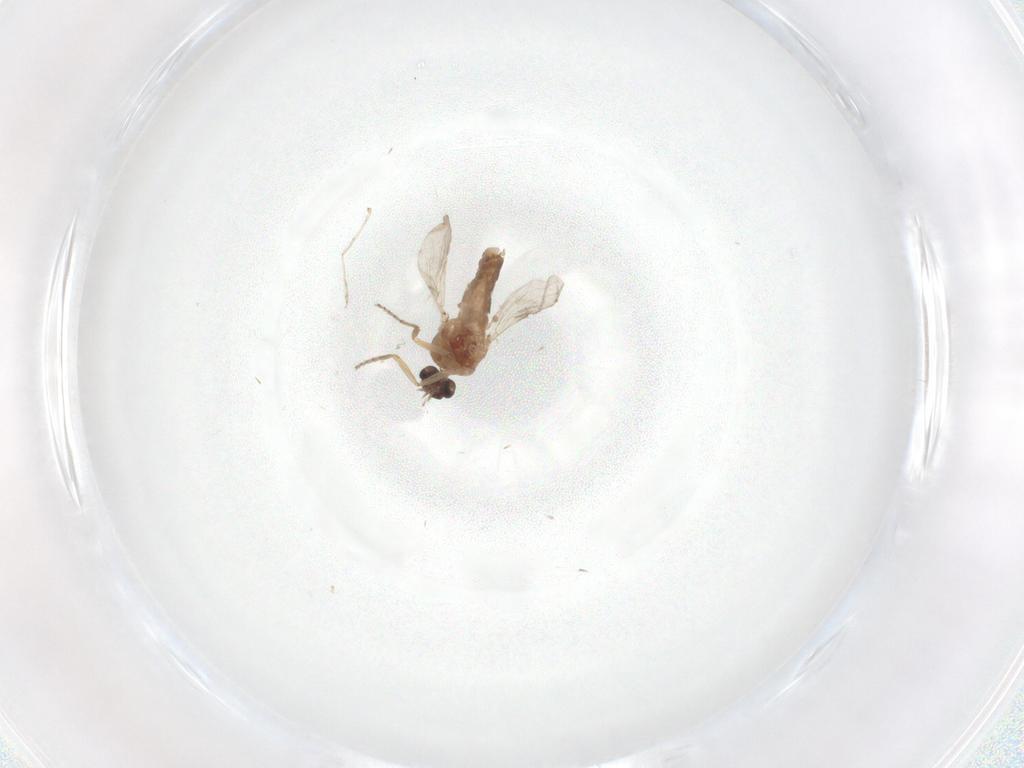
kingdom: Animalia
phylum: Arthropoda
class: Insecta
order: Diptera
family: Ceratopogonidae
